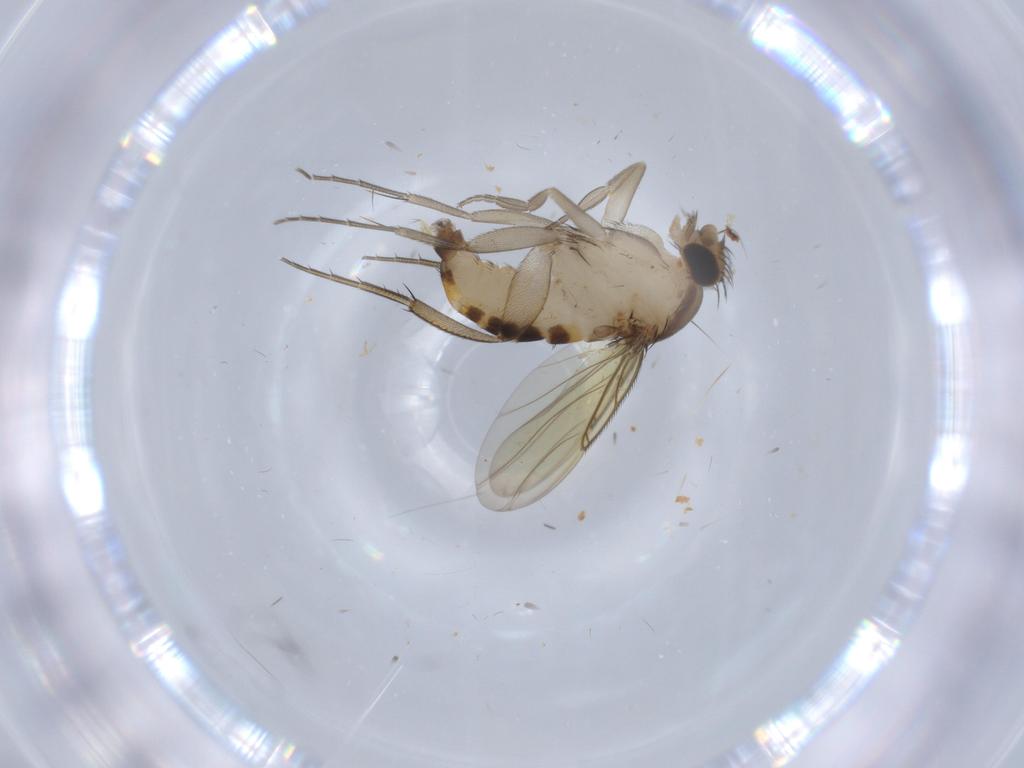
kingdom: Animalia
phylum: Arthropoda
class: Insecta
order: Diptera
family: Phoridae
